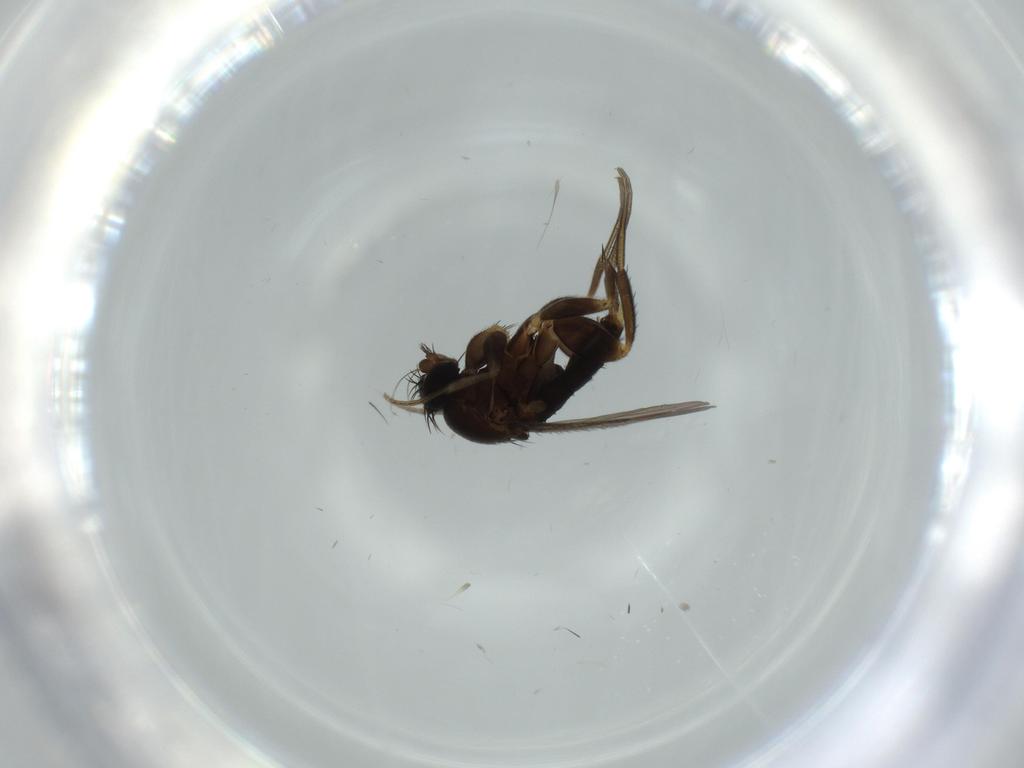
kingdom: Animalia
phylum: Arthropoda
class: Insecta
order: Diptera
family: Phoridae
